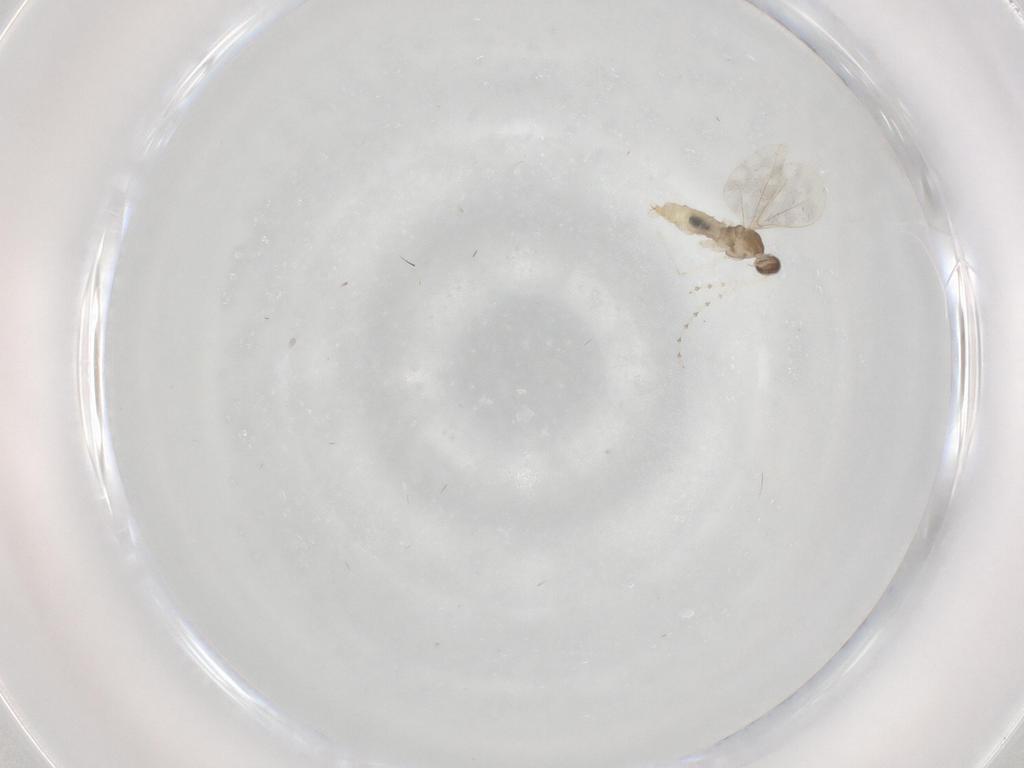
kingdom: Animalia
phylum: Arthropoda
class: Insecta
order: Diptera
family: Cecidomyiidae
